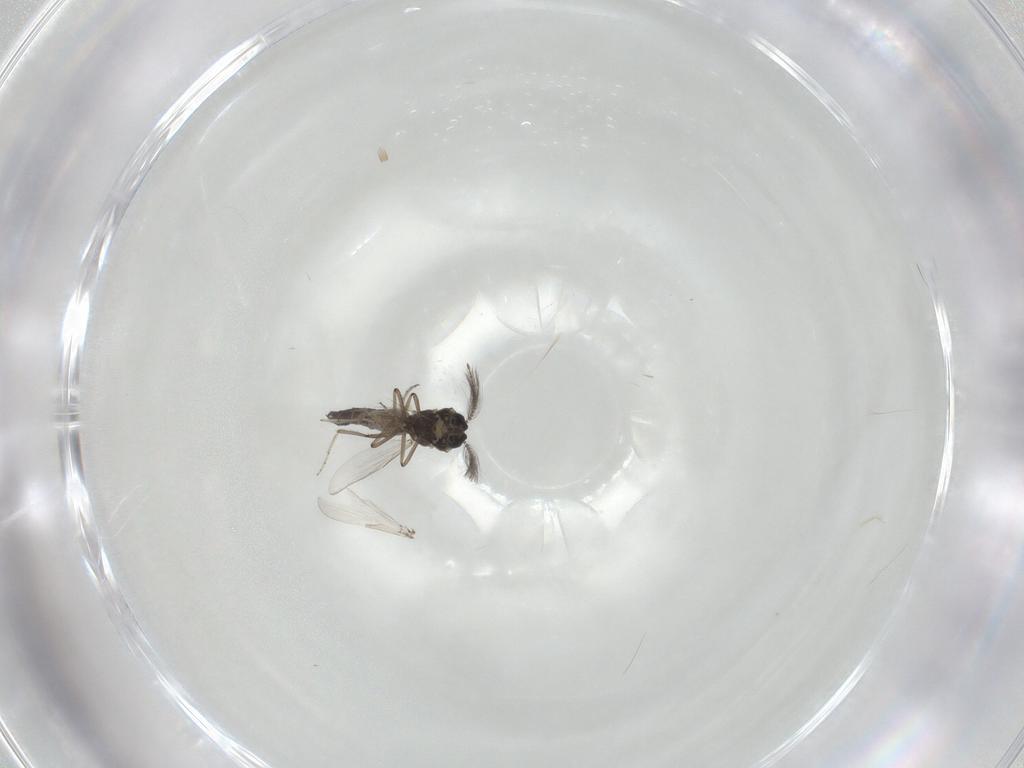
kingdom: Animalia
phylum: Arthropoda
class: Insecta
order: Diptera
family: Ceratopogonidae
